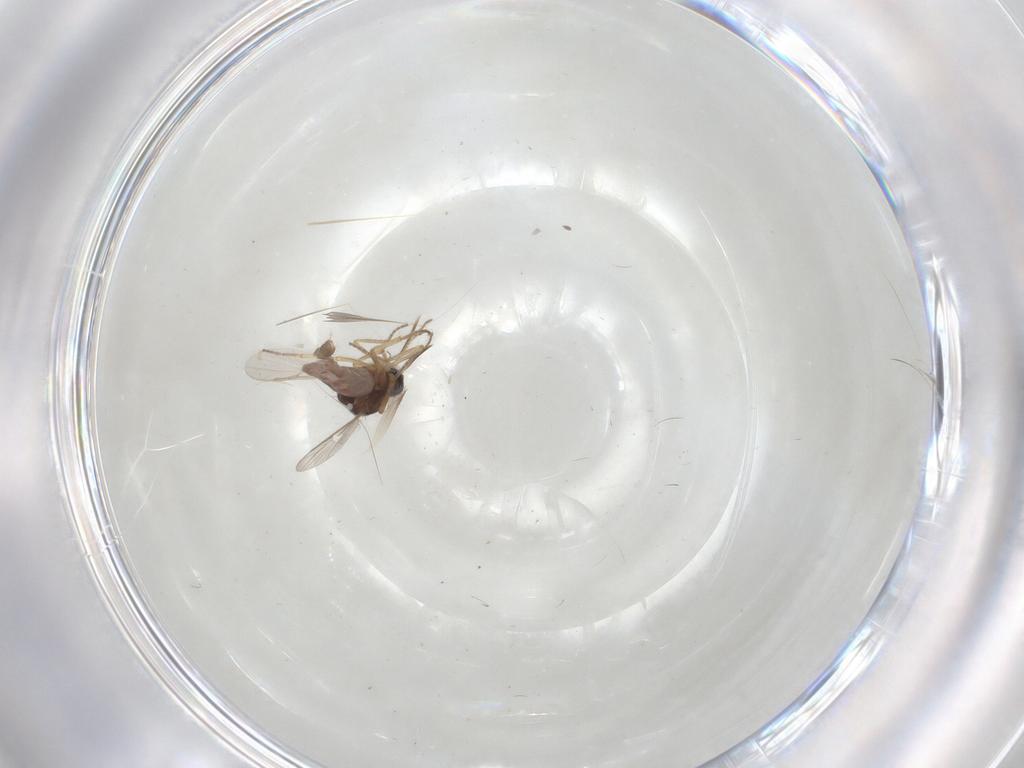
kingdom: Animalia
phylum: Arthropoda
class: Insecta
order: Diptera
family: Ceratopogonidae
